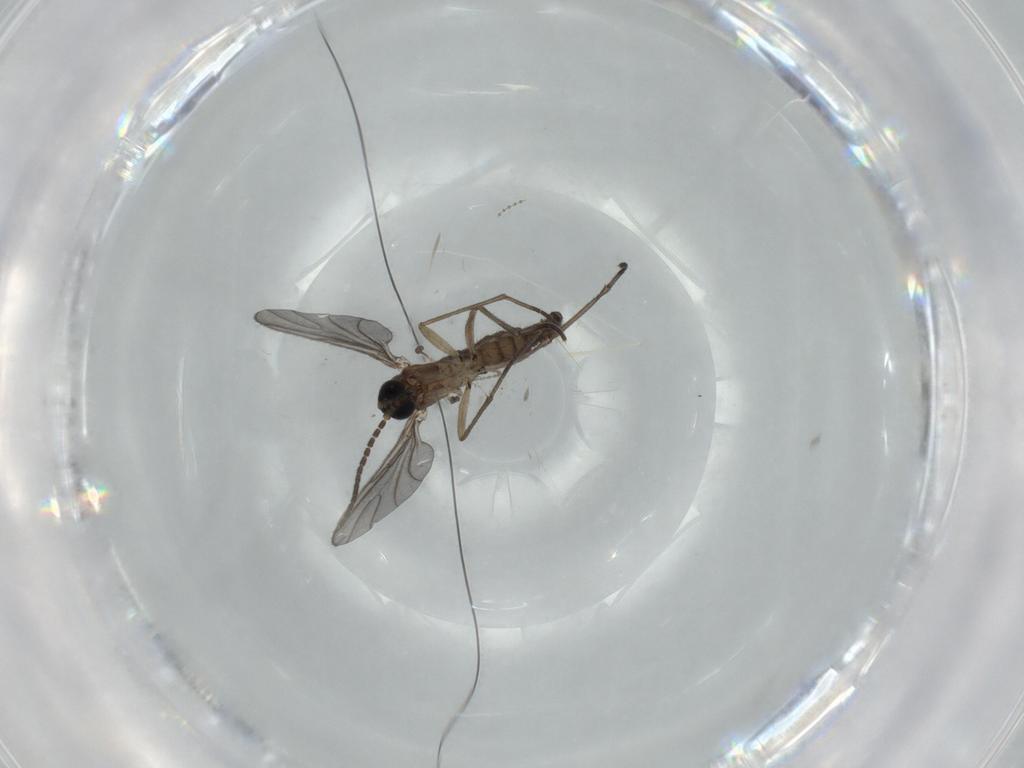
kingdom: Animalia
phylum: Arthropoda
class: Insecta
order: Diptera
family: Sciaridae
